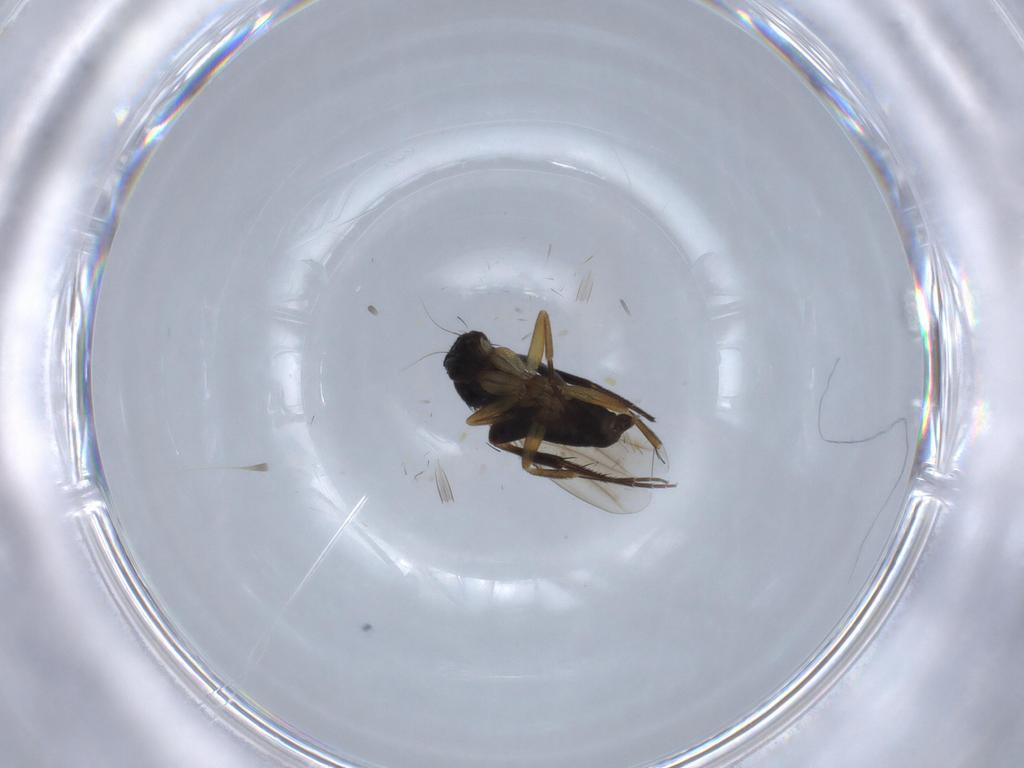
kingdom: Animalia
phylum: Arthropoda
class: Insecta
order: Diptera
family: Phoridae
